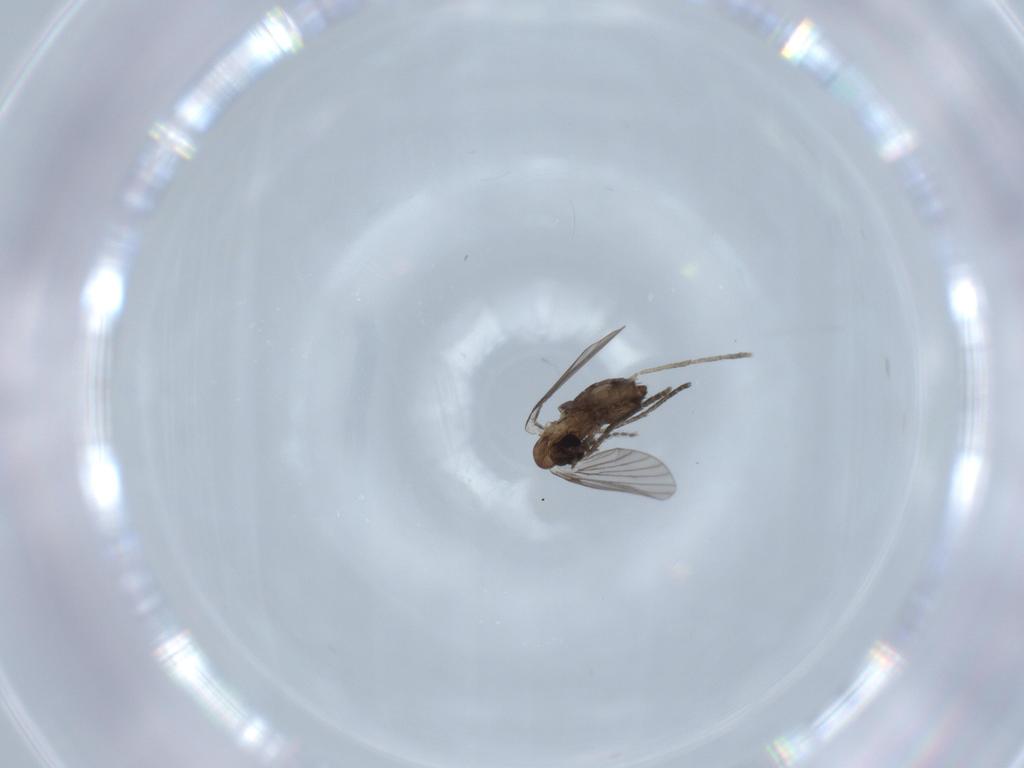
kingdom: Animalia
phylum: Arthropoda
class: Insecta
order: Diptera
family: Psychodidae
